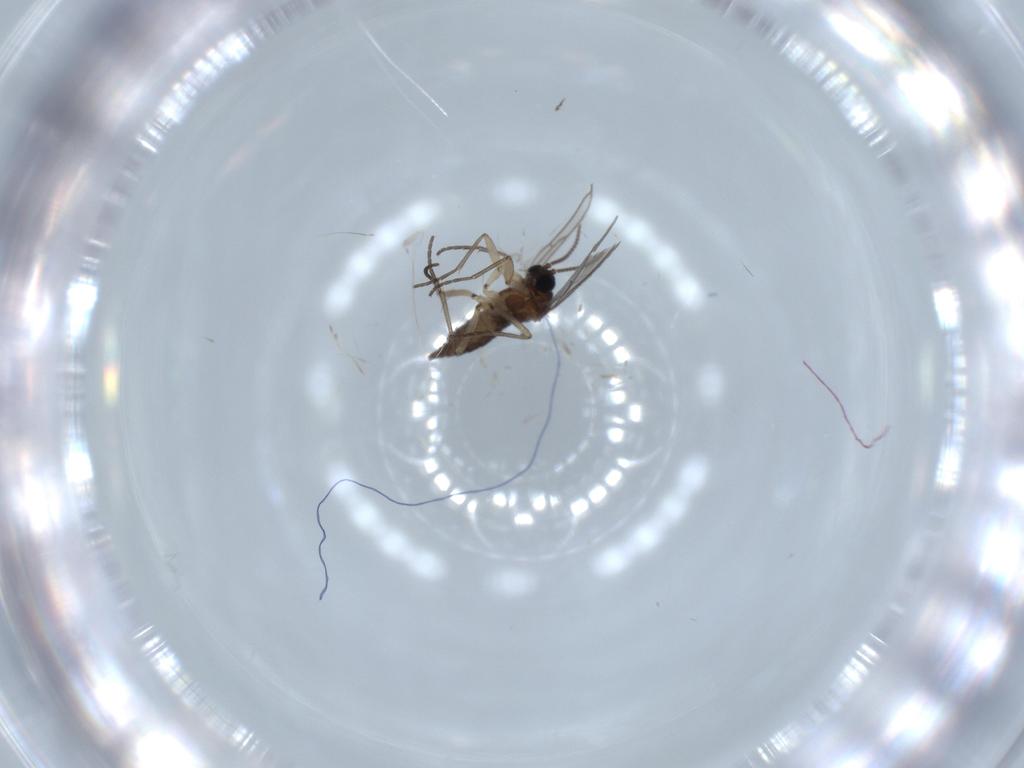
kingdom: Animalia
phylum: Arthropoda
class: Insecta
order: Diptera
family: Sciaridae
